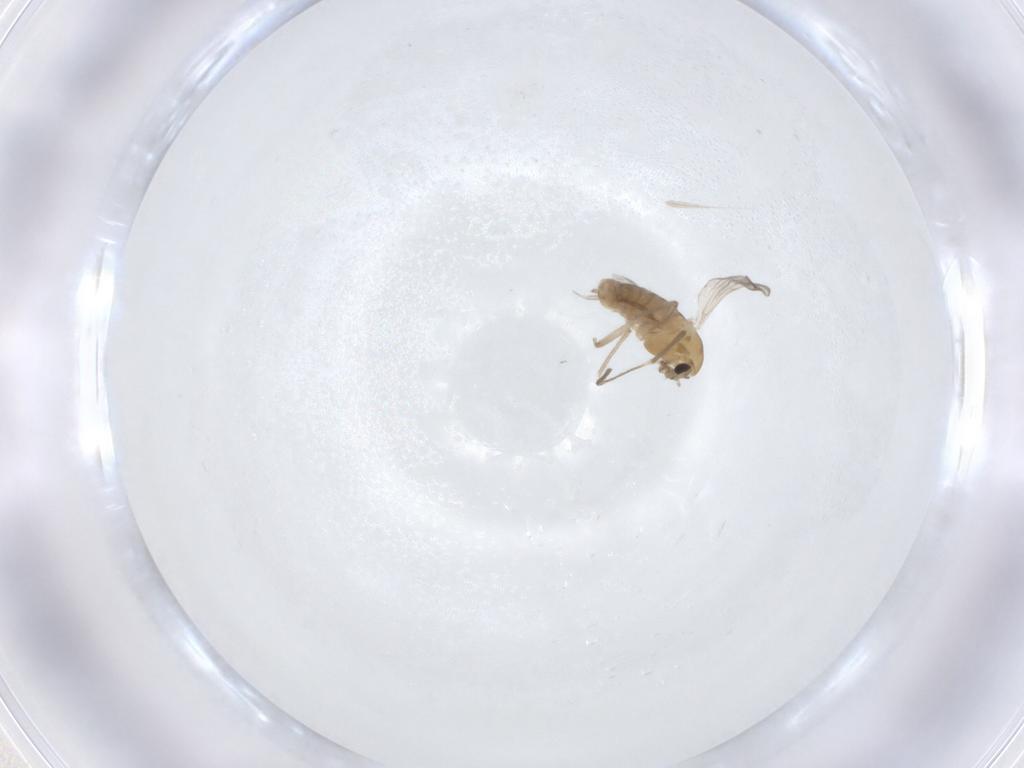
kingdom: Animalia
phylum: Arthropoda
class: Insecta
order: Diptera
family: Chironomidae
